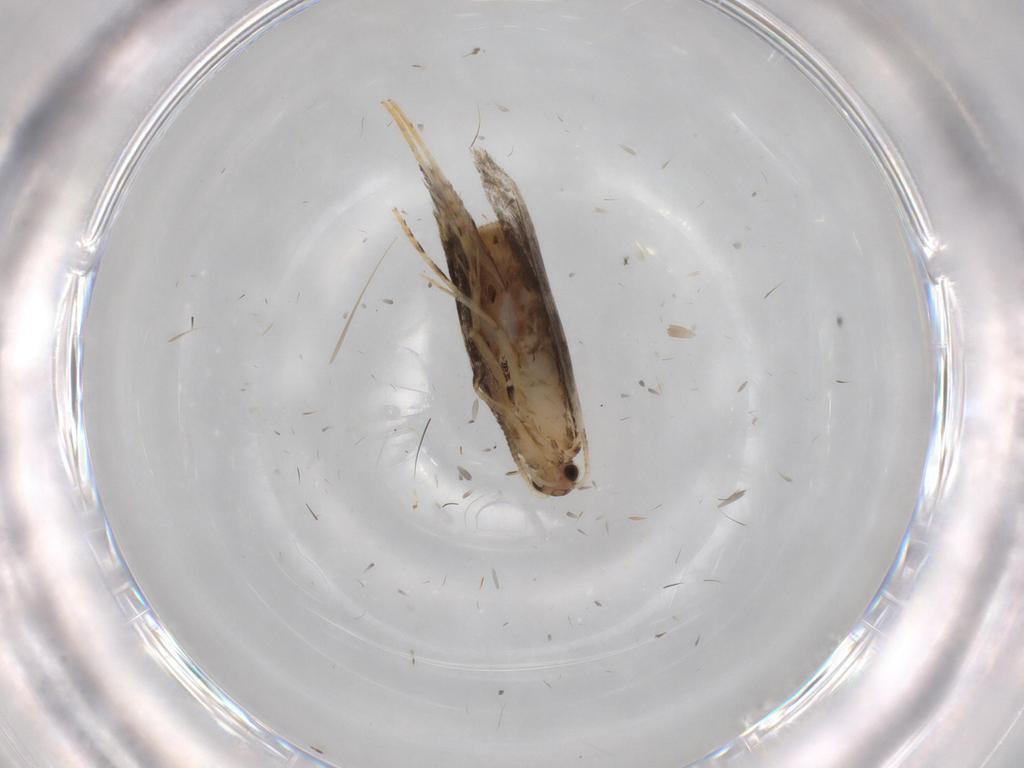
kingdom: Animalia
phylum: Arthropoda
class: Insecta
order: Lepidoptera
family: Tineidae
